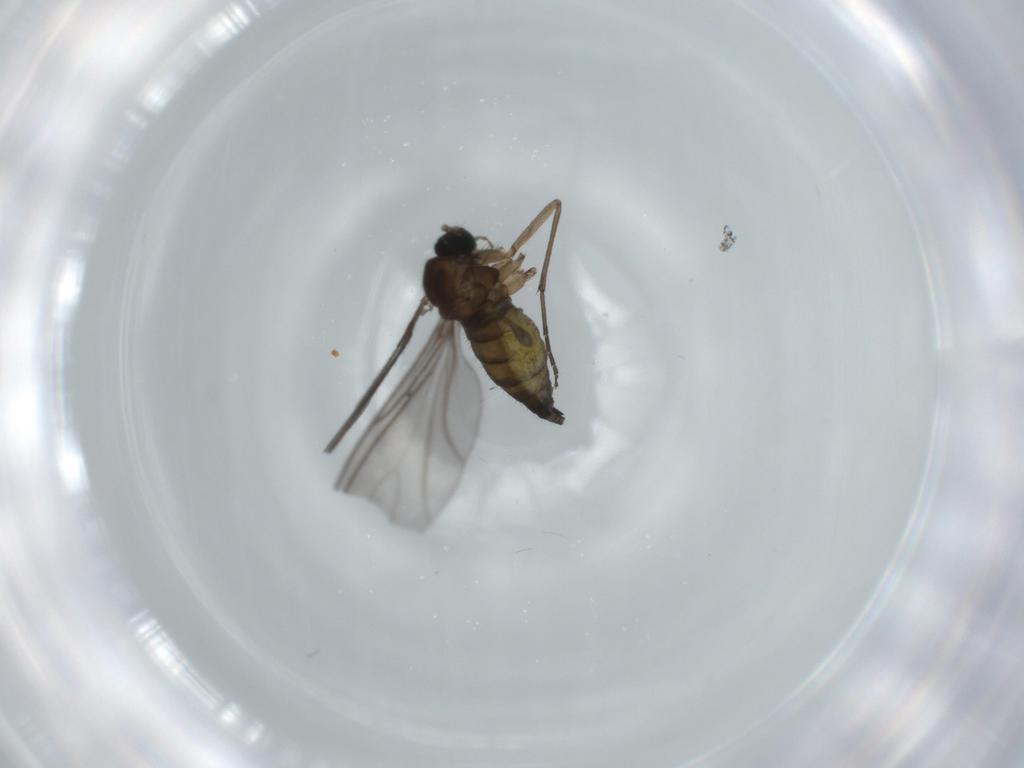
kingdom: Animalia
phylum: Arthropoda
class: Insecta
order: Diptera
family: Sciaridae
